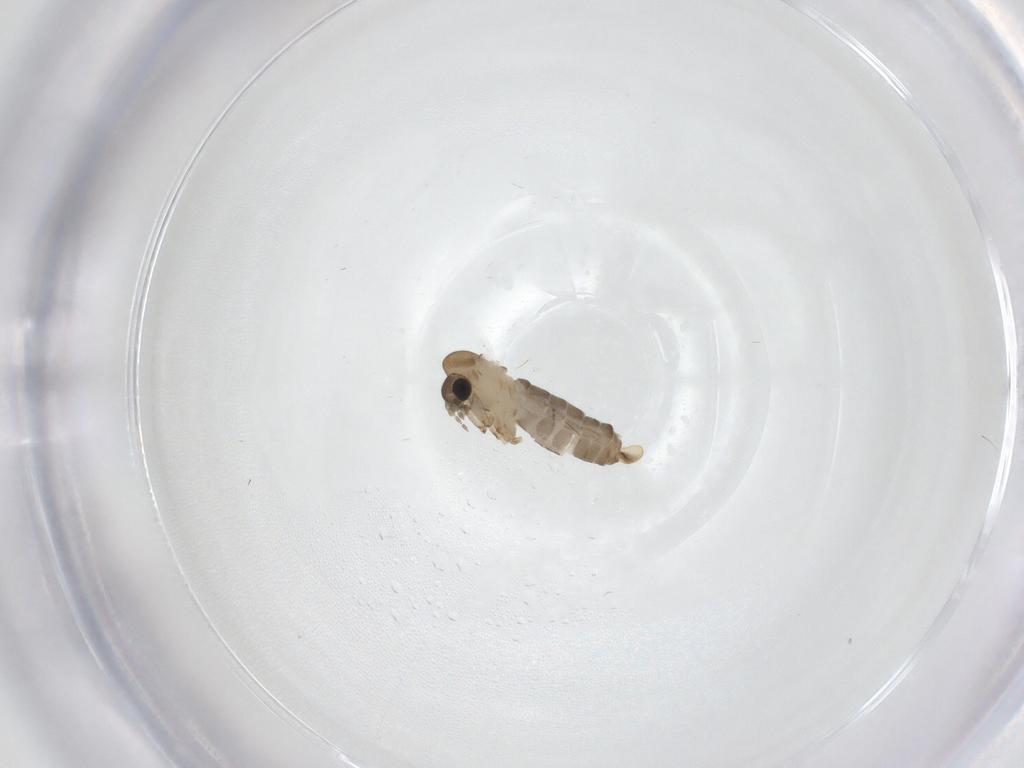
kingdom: Animalia
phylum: Arthropoda
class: Insecta
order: Diptera
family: Psychodidae
